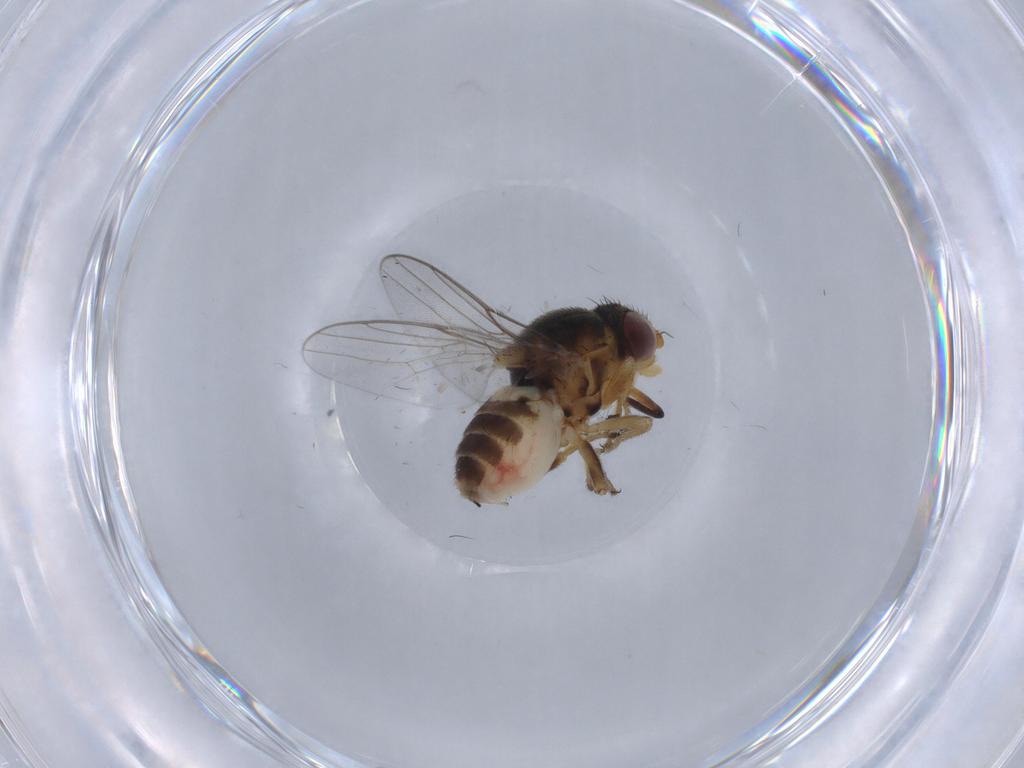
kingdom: Animalia
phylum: Arthropoda
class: Insecta
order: Diptera
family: Chloropidae
